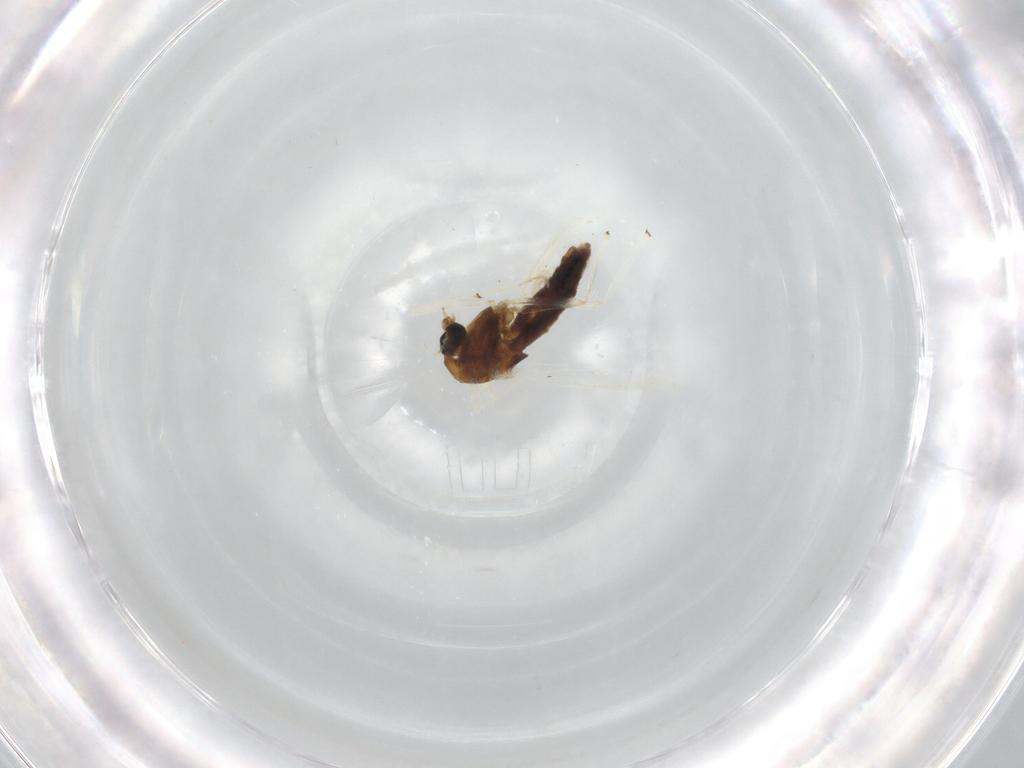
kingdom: Animalia
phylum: Arthropoda
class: Insecta
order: Diptera
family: Chironomidae
